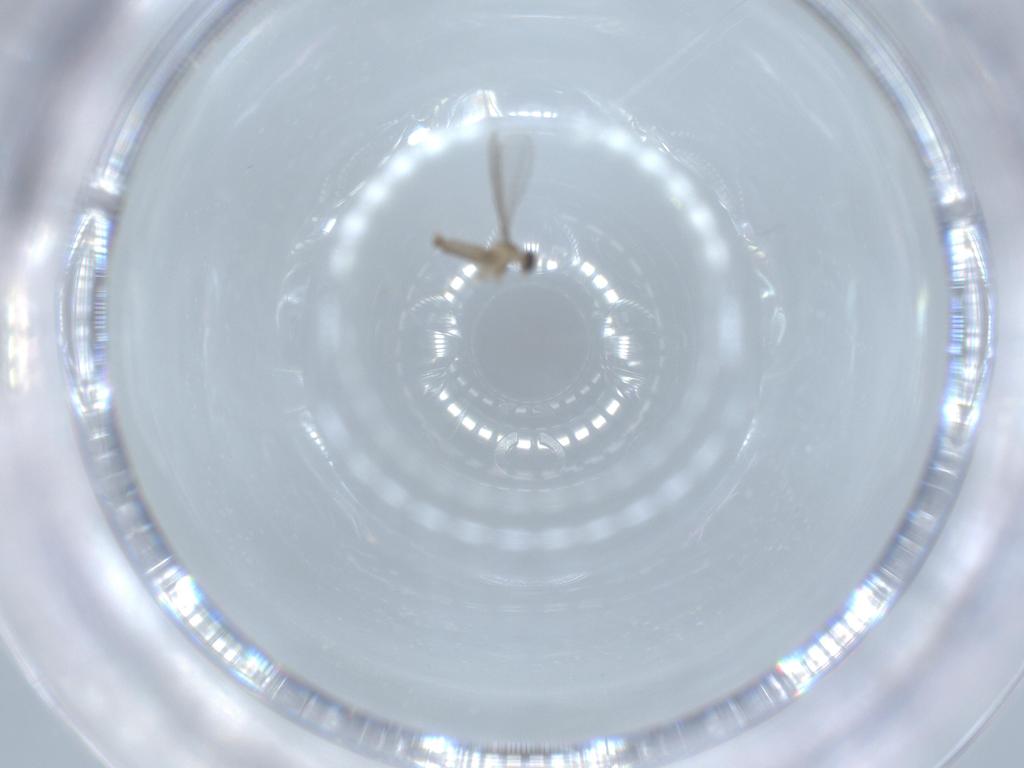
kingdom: Animalia
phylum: Arthropoda
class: Insecta
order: Diptera
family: Cecidomyiidae
